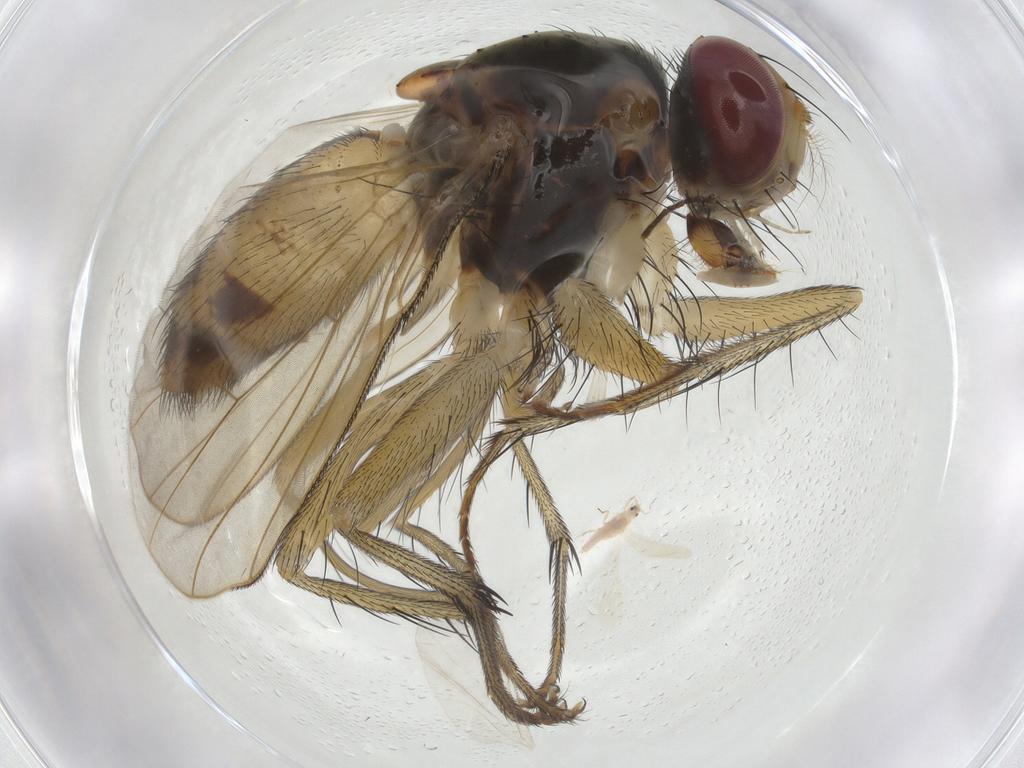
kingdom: Animalia
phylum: Arthropoda
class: Insecta
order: Diptera
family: Muscidae
